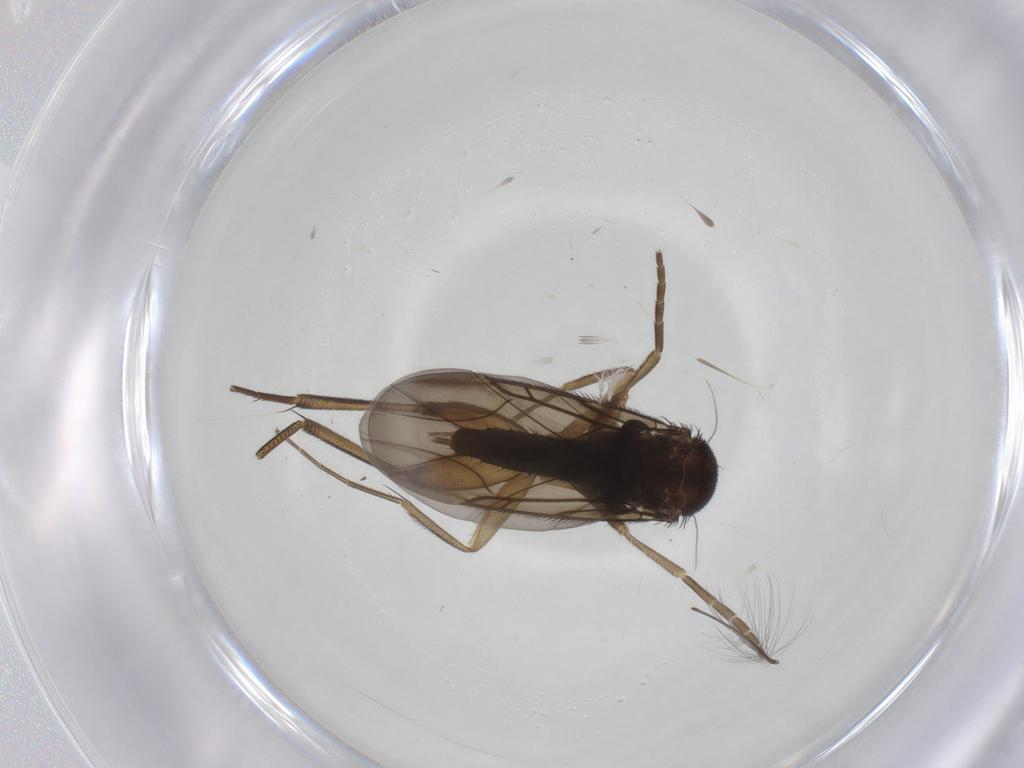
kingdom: Animalia
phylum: Arthropoda
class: Insecta
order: Diptera
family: Phoridae
